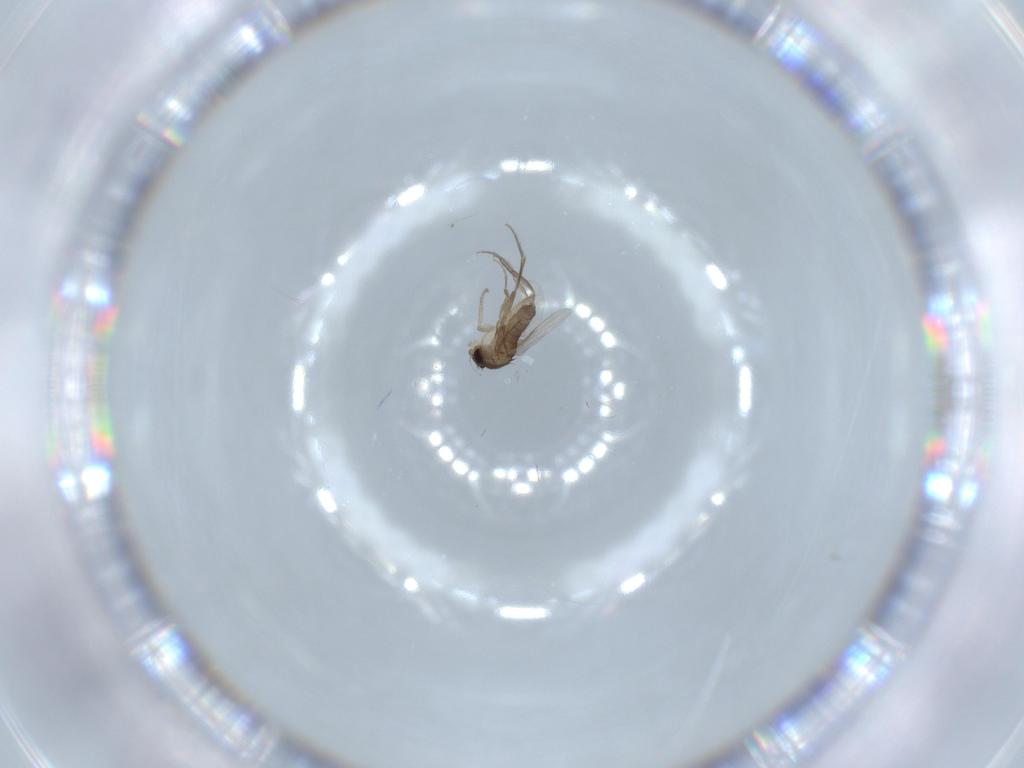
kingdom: Animalia
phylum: Arthropoda
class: Insecta
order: Diptera
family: Phoridae
